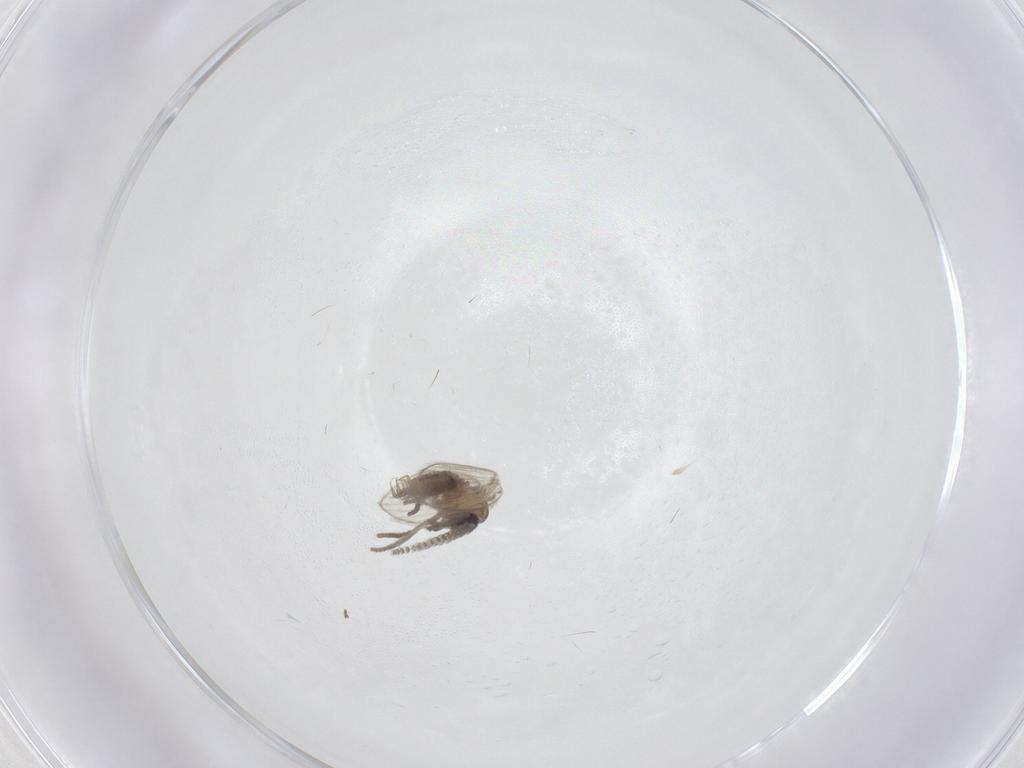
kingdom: Animalia
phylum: Arthropoda
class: Insecta
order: Diptera
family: Psychodidae
